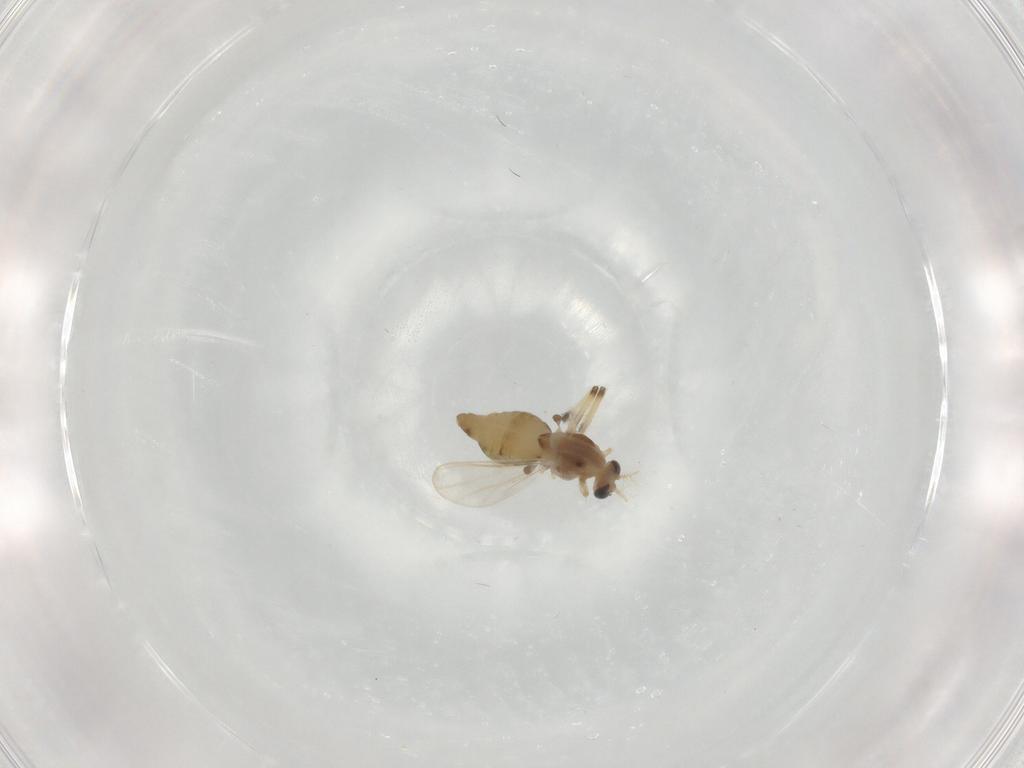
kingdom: Animalia
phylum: Arthropoda
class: Insecta
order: Diptera
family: Chironomidae
